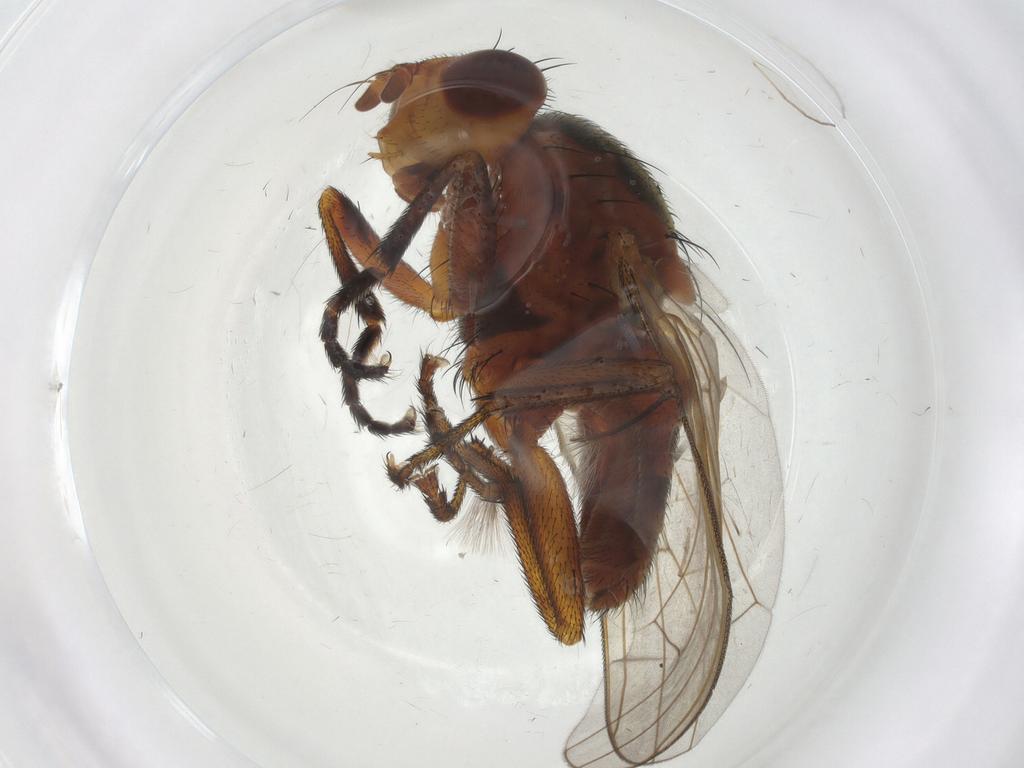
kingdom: Animalia
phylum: Arthropoda
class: Insecta
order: Diptera
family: Sciomyzidae
